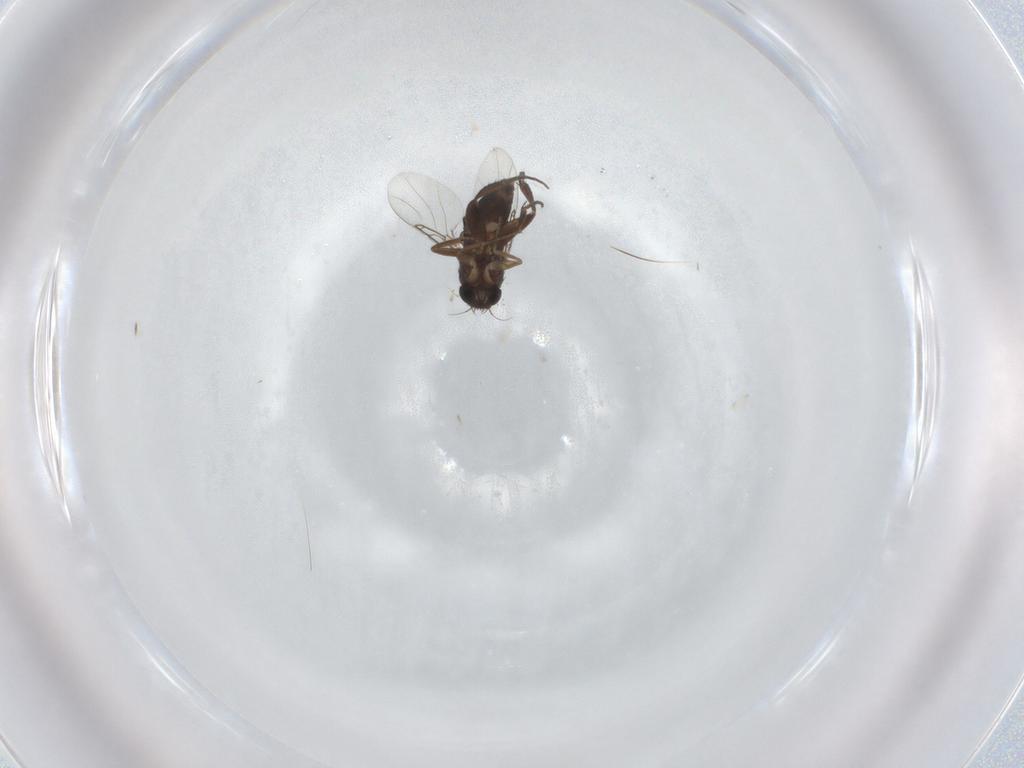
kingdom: Animalia
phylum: Arthropoda
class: Insecta
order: Diptera
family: Phoridae
